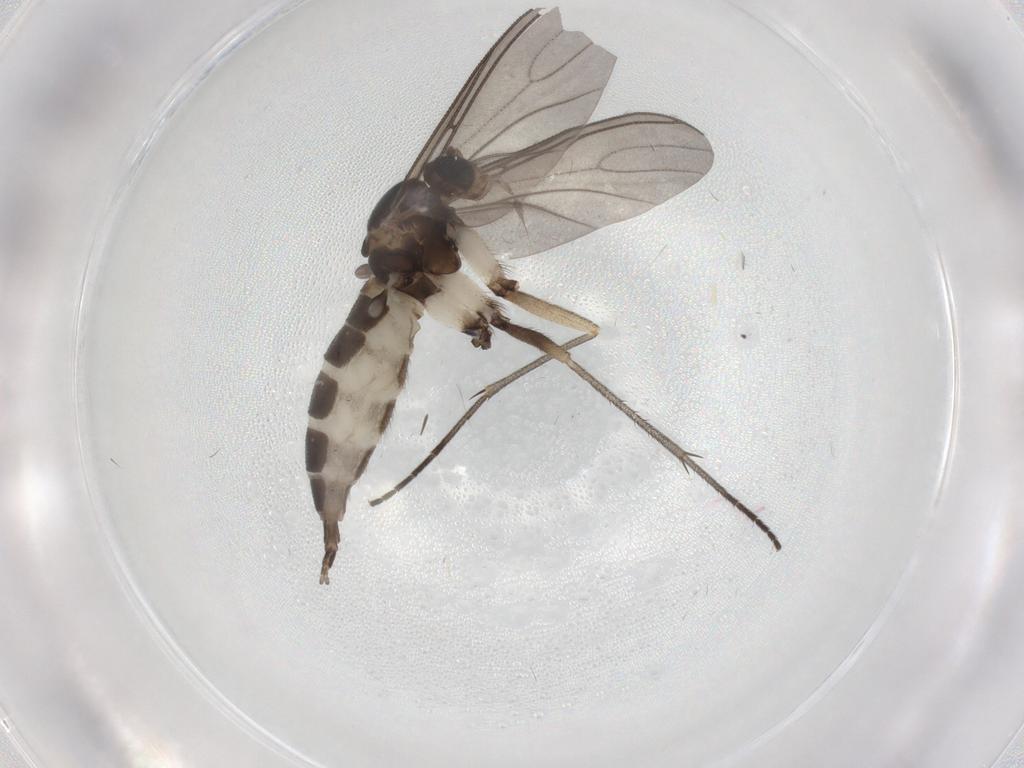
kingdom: Animalia
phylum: Arthropoda
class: Insecta
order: Diptera
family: Sciaridae
